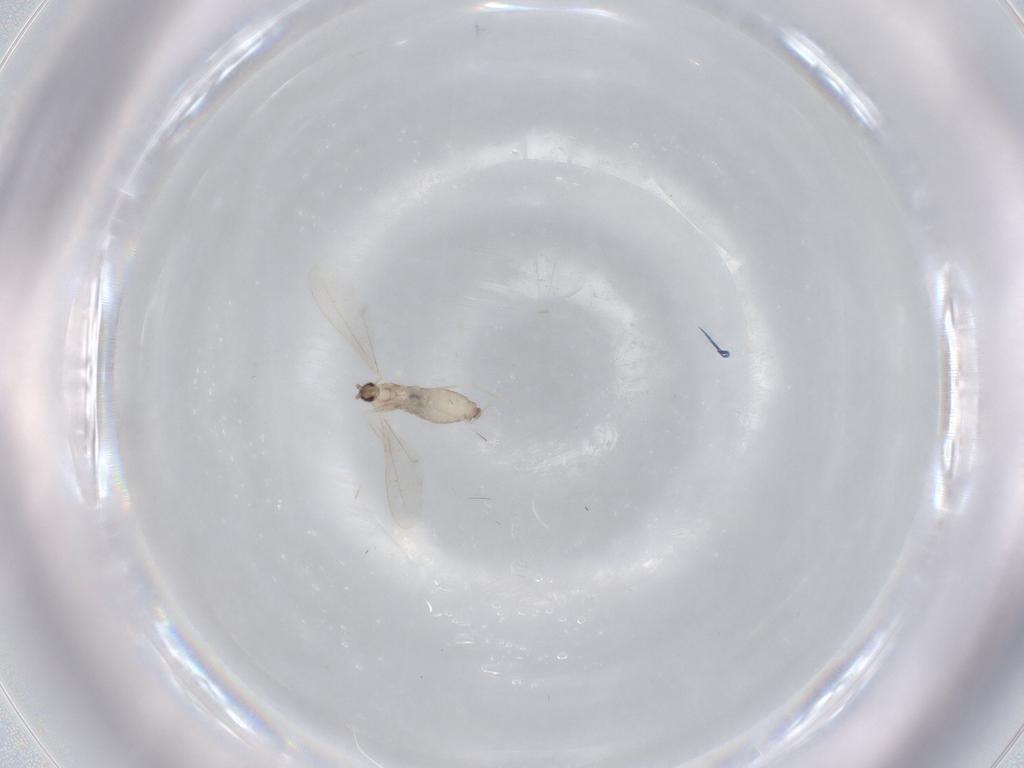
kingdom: Animalia
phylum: Arthropoda
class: Insecta
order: Diptera
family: Cecidomyiidae
